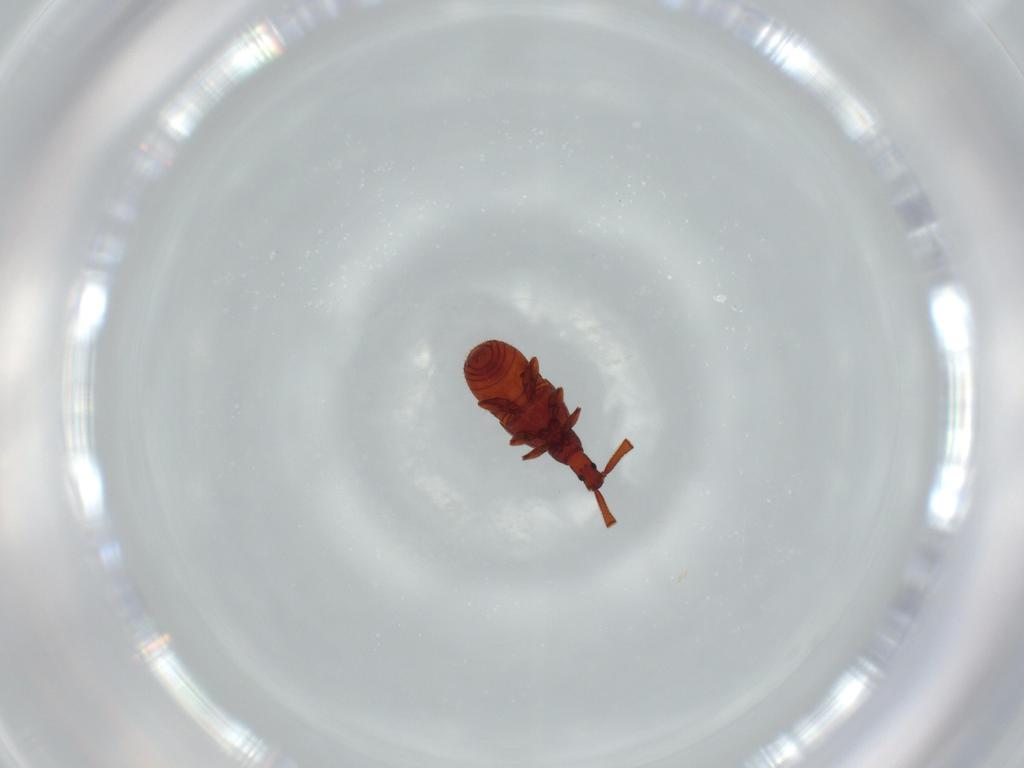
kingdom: Animalia
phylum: Arthropoda
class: Insecta
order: Coleoptera
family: Staphylinidae
